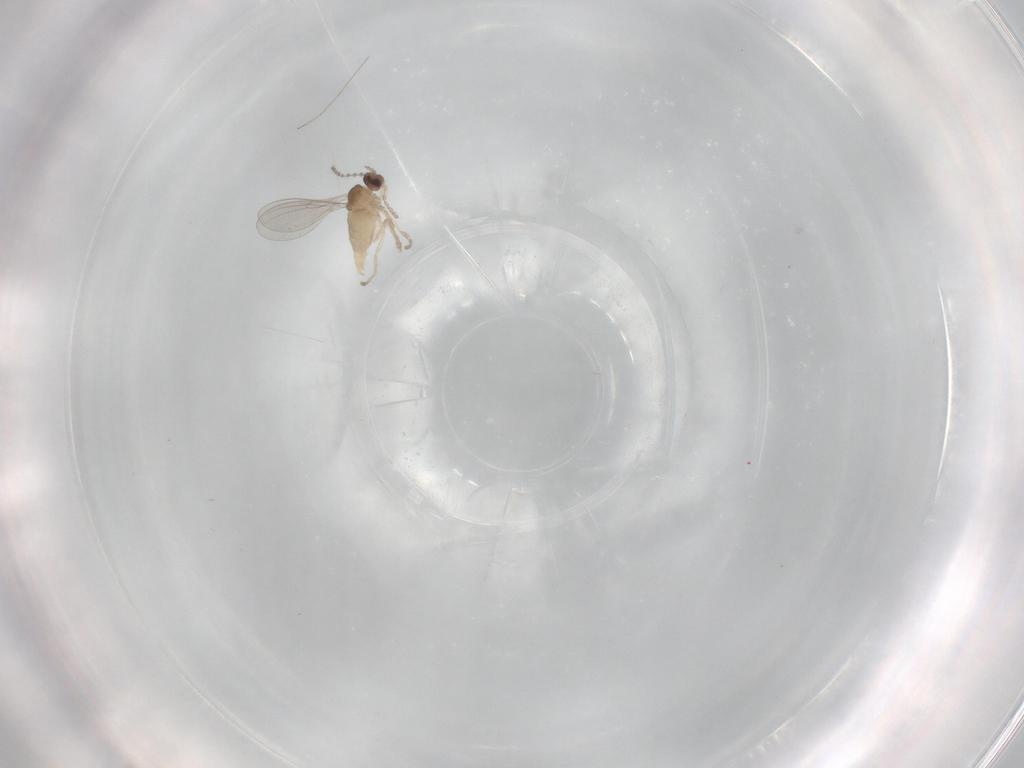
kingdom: Animalia
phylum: Arthropoda
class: Insecta
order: Diptera
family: Cecidomyiidae
